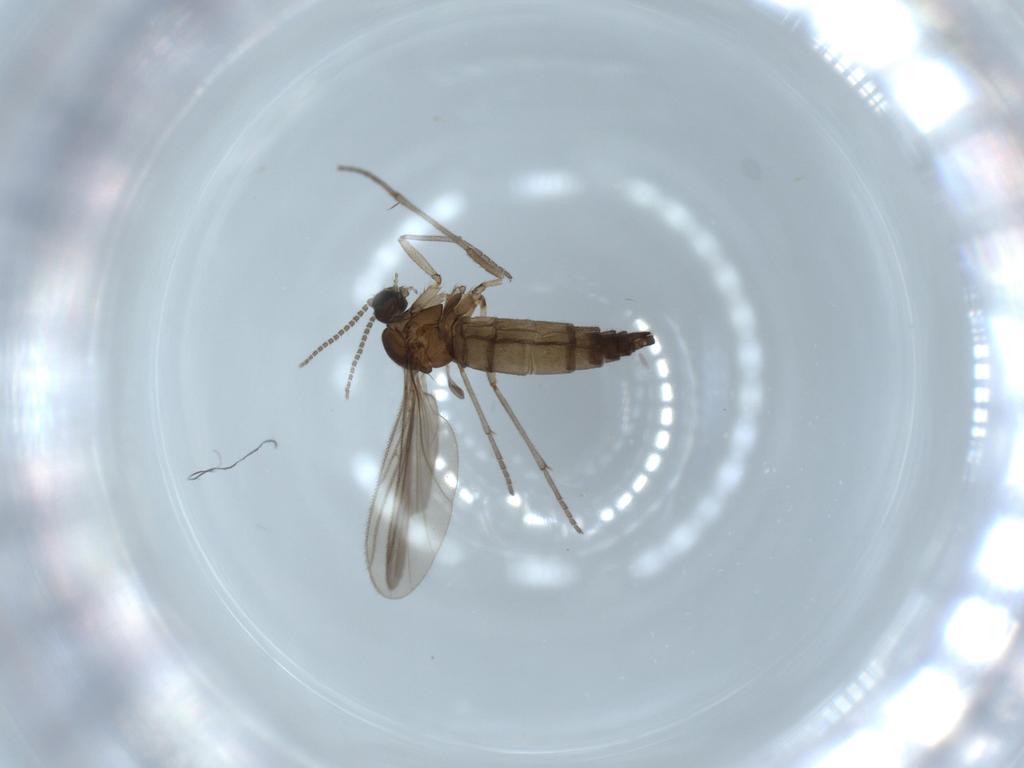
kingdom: Animalia
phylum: Arthropoda
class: Insecta
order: Diptera
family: Sciaridae
